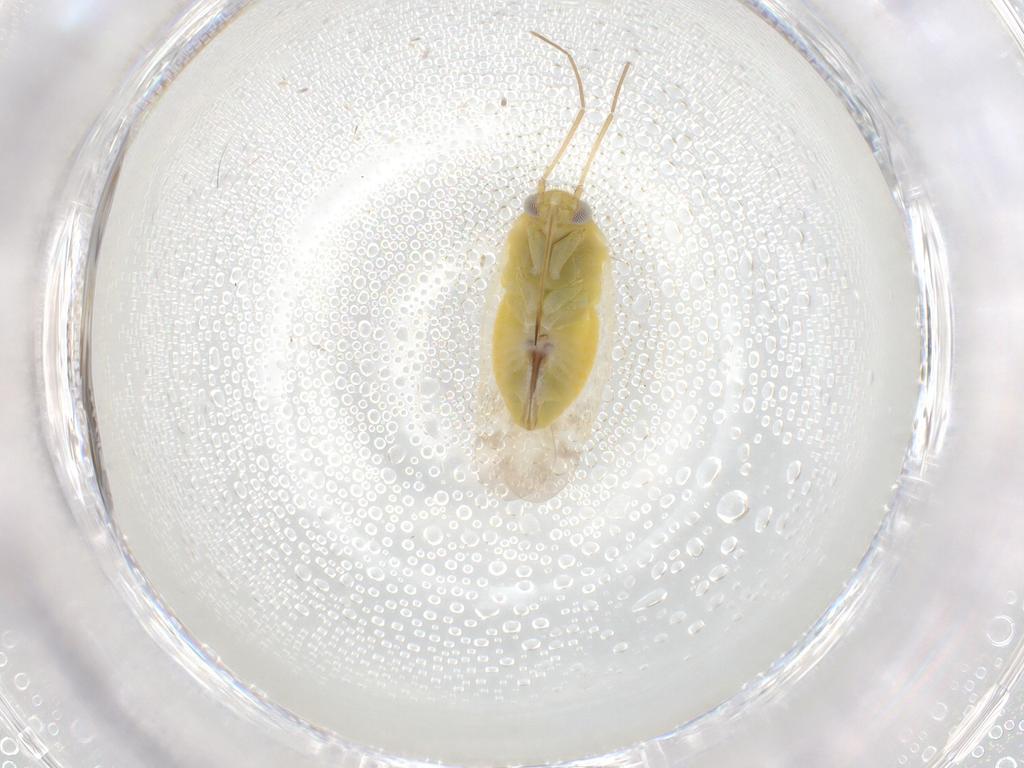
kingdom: Animalia
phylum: Arthropoda
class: Insecta
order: Hemiptera
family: Miridae
